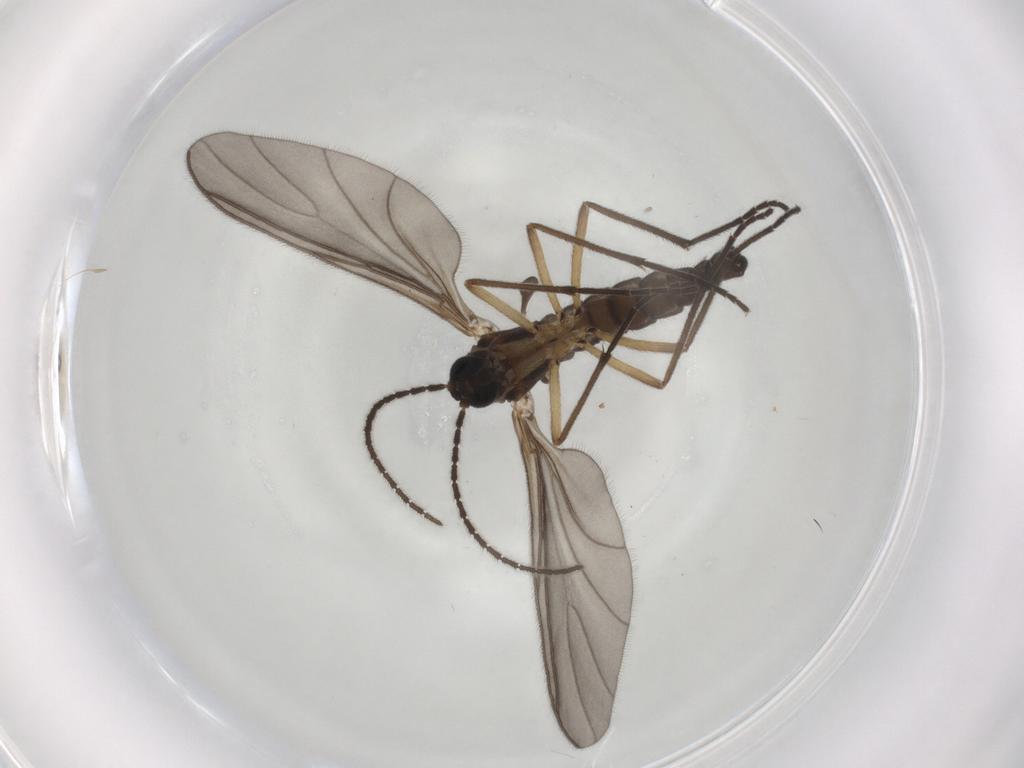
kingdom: Animalia
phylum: Arthropoda
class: Insecta
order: Diptera
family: Sciaridae
